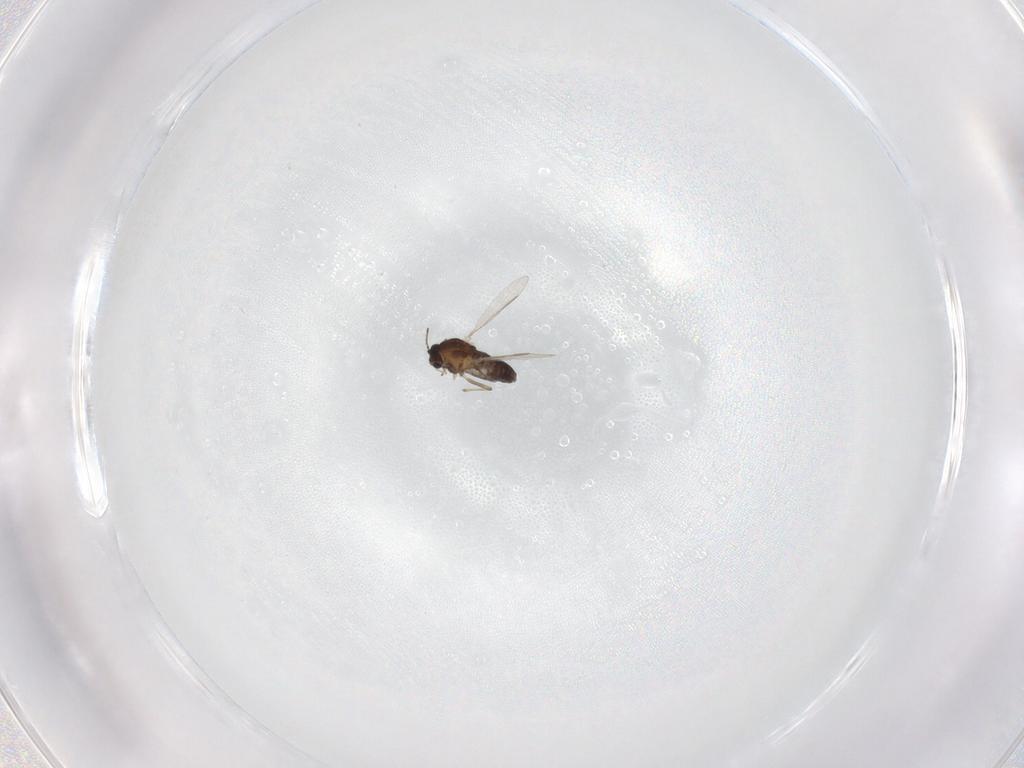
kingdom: Animalia
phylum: Arthropoda
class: Insecta
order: Diptera
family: Chironomidae
